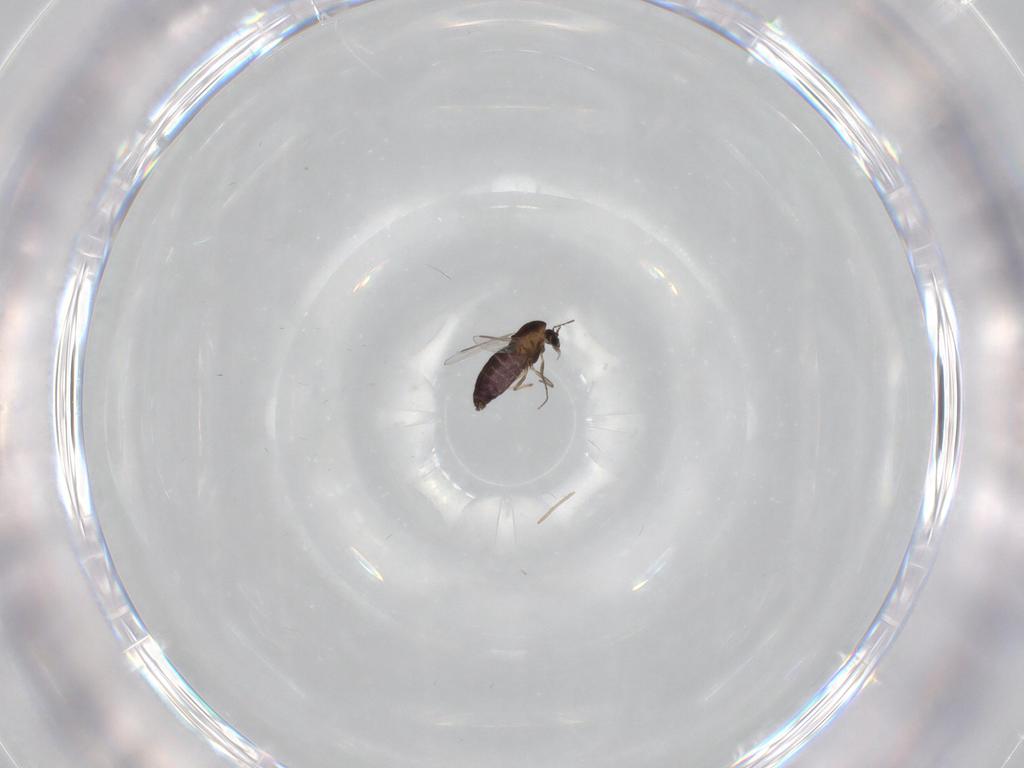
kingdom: Animalia
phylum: Arthropoda
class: Insecta
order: Diptera
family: Chironomidae
